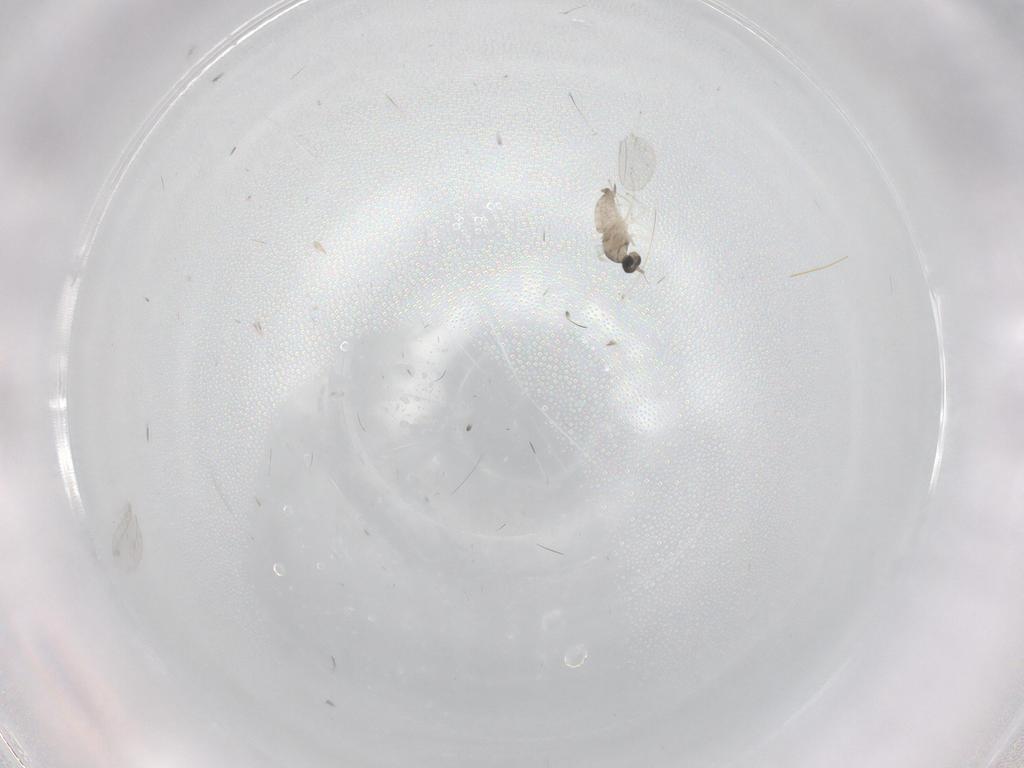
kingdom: Animalia
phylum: Arthropoda
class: Insecta
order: Diptera
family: Cecidomyiidae
